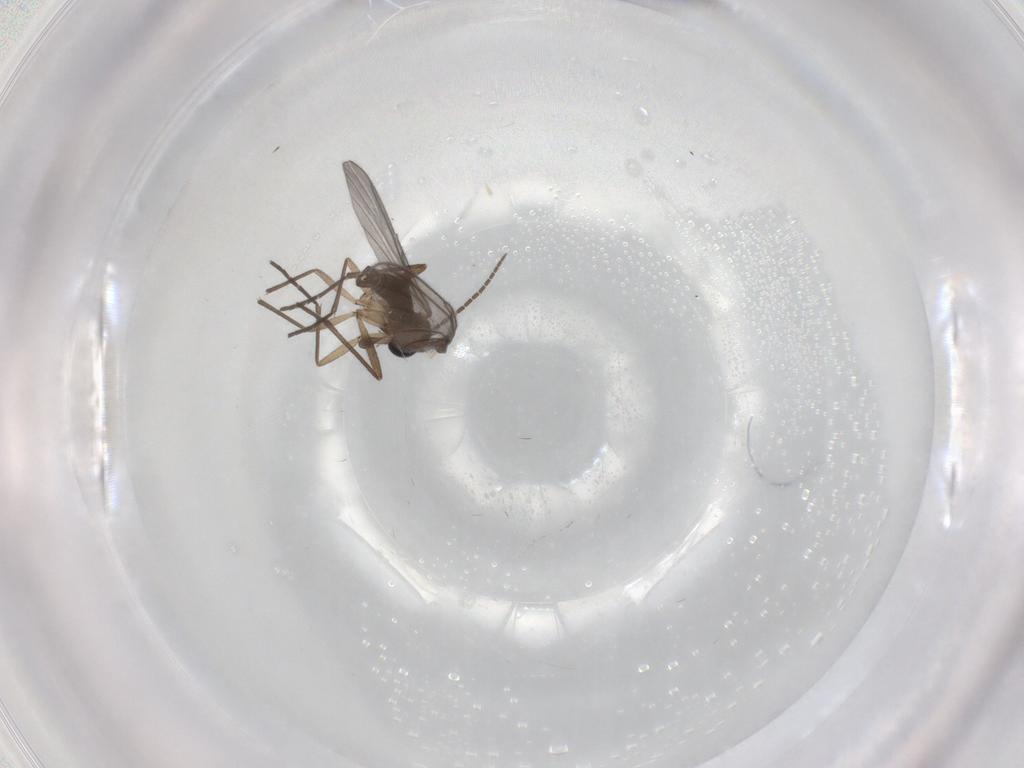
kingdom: Animalia
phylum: Arthropoda
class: Insecta
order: Diptera
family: Sciaridae
